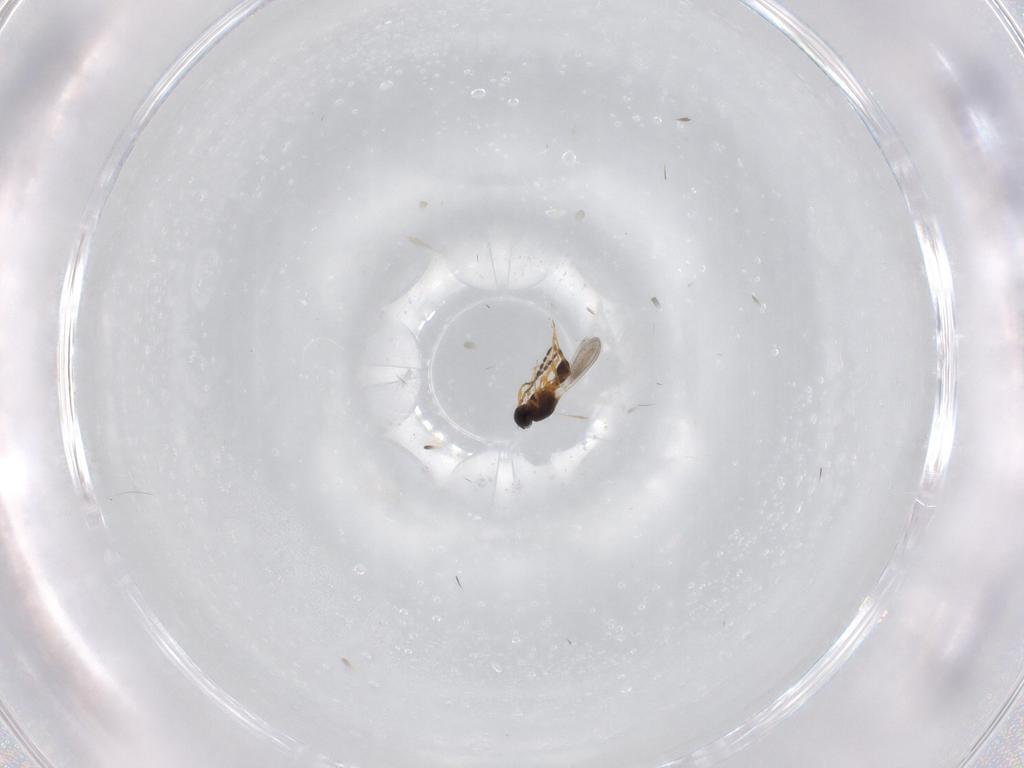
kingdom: Animalia
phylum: Arthropoda
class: Insecta
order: Hymenoptera
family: Platygastridae
